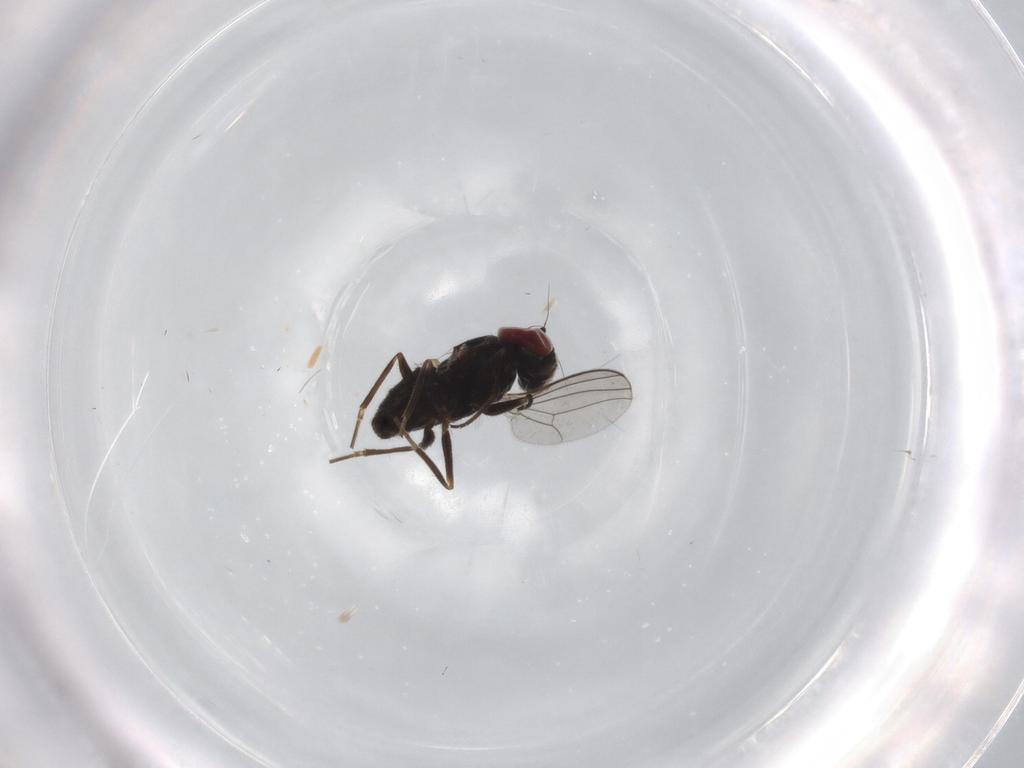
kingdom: Animalia
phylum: Arthropoda
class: Insecta
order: Diptera
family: Dolichopodidae
